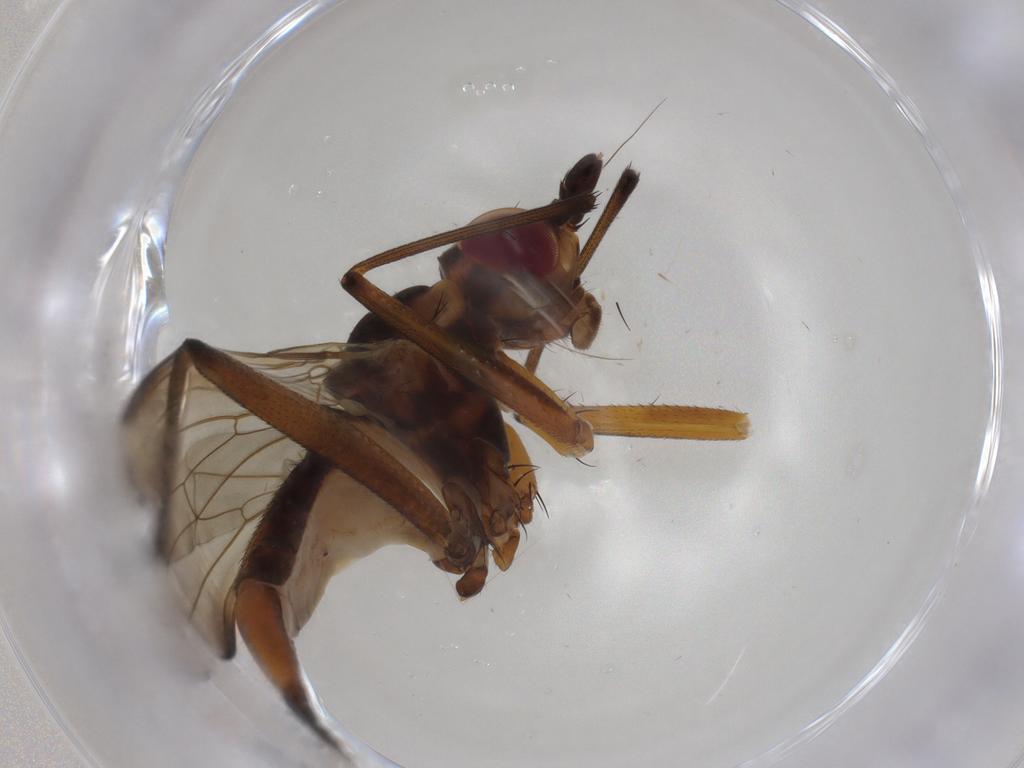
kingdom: Animalia
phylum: Arthropoda
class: Insecta
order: Diptera
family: Neriidae
